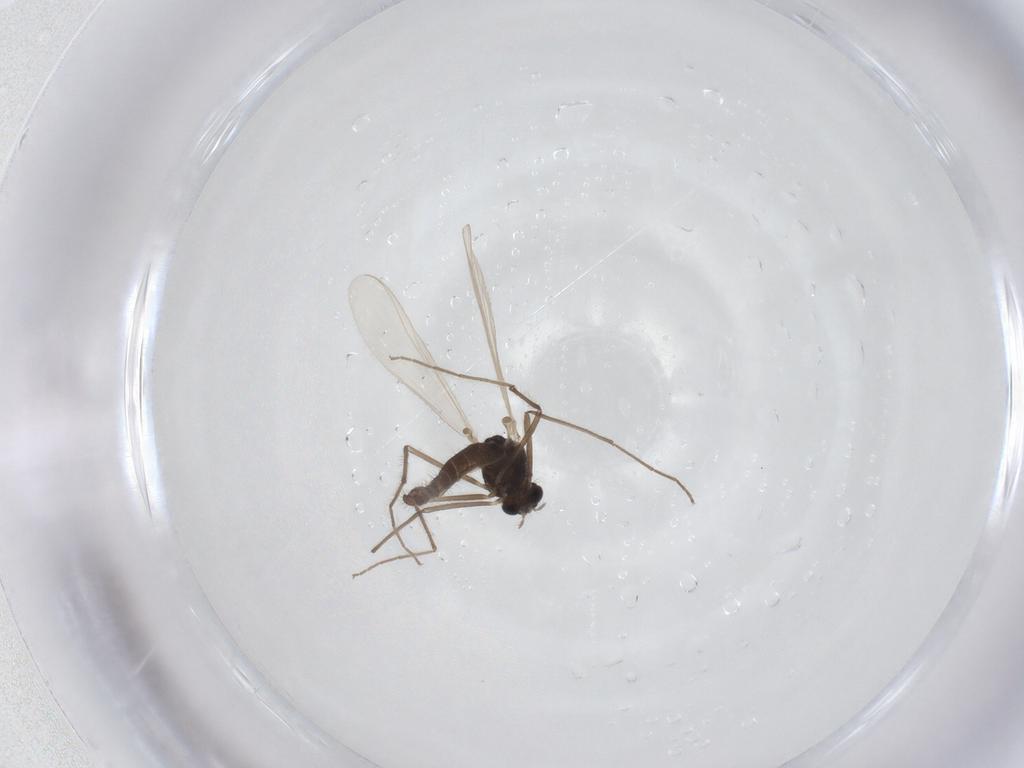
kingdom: Animalia
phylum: Arthropoda
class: Insecta
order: Diptera
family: Chironomidae
